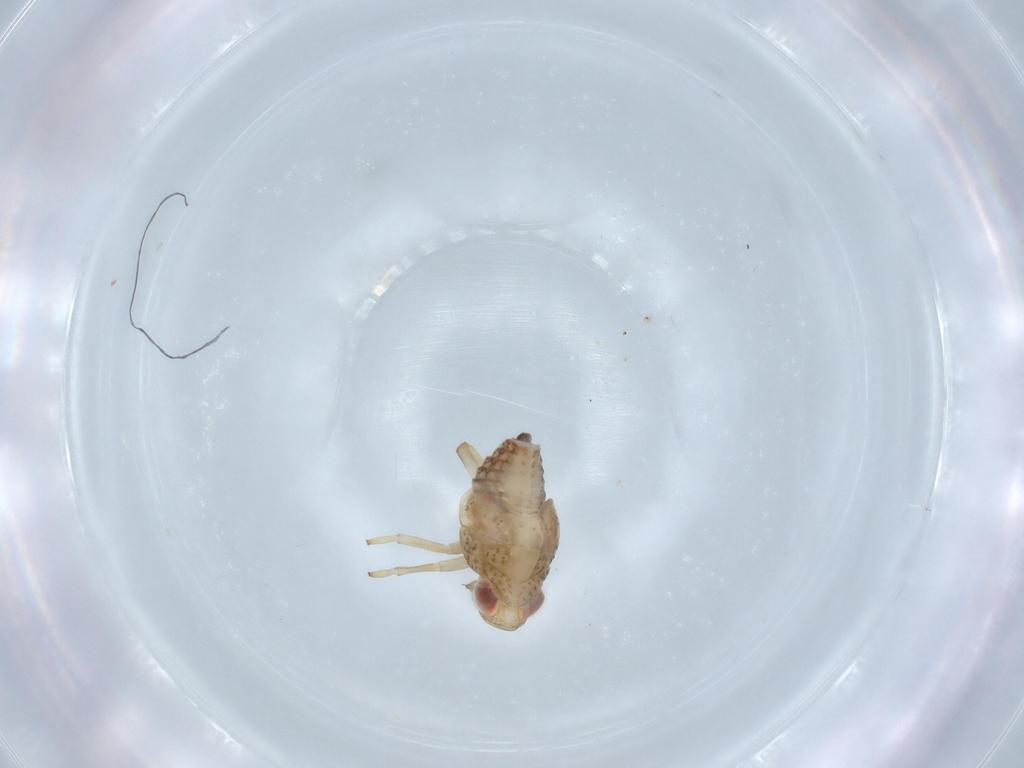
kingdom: Animalia
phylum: Arthropoda
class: Insecta
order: Hemiptera
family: Issidae
